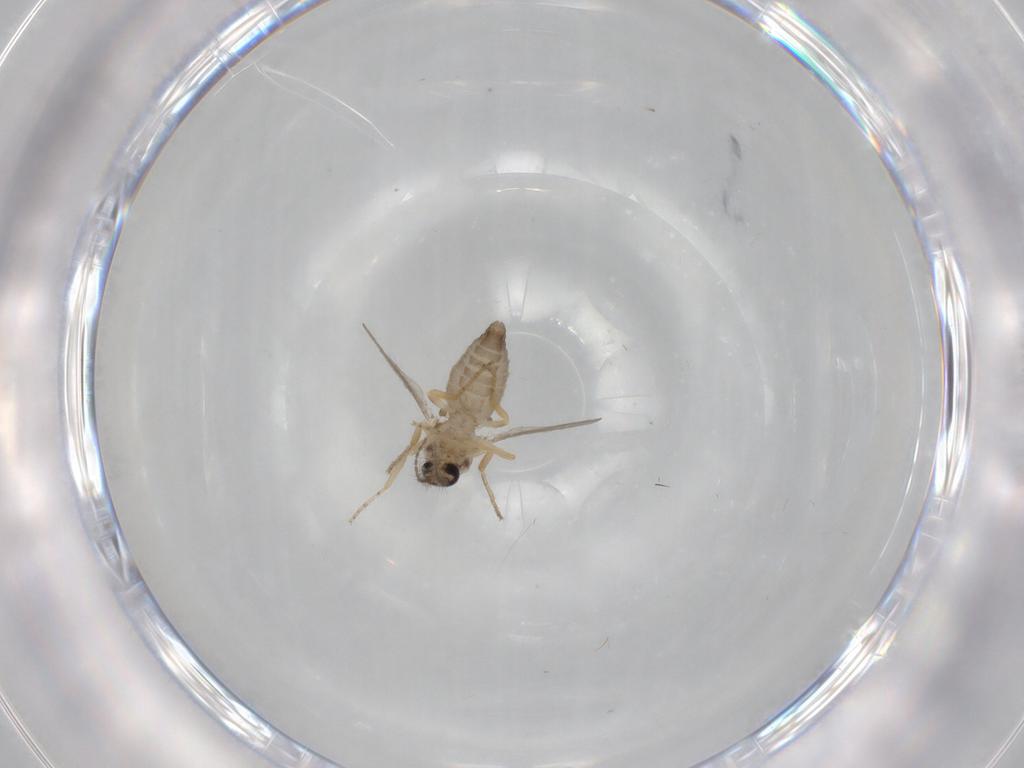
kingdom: Animalia
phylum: Arthropoda
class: Insecta
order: Diptera
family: Ceratopogonidae
